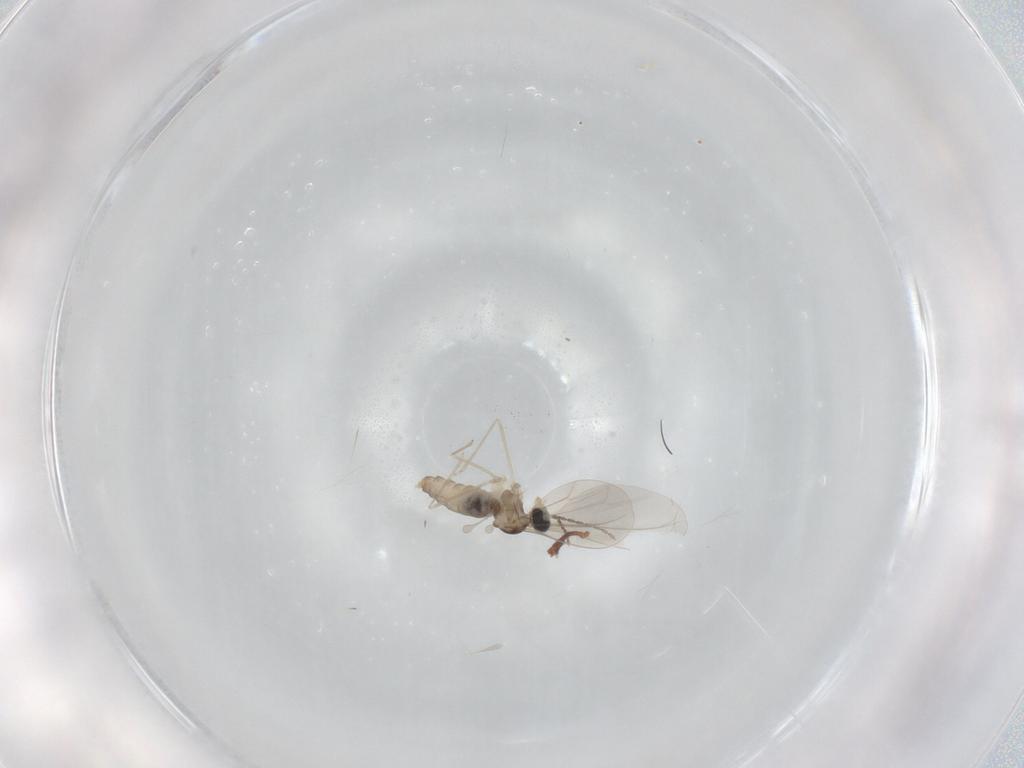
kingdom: Animalia
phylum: Arthropoda
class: Insecta
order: Diptera
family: Cecidomyiidae
